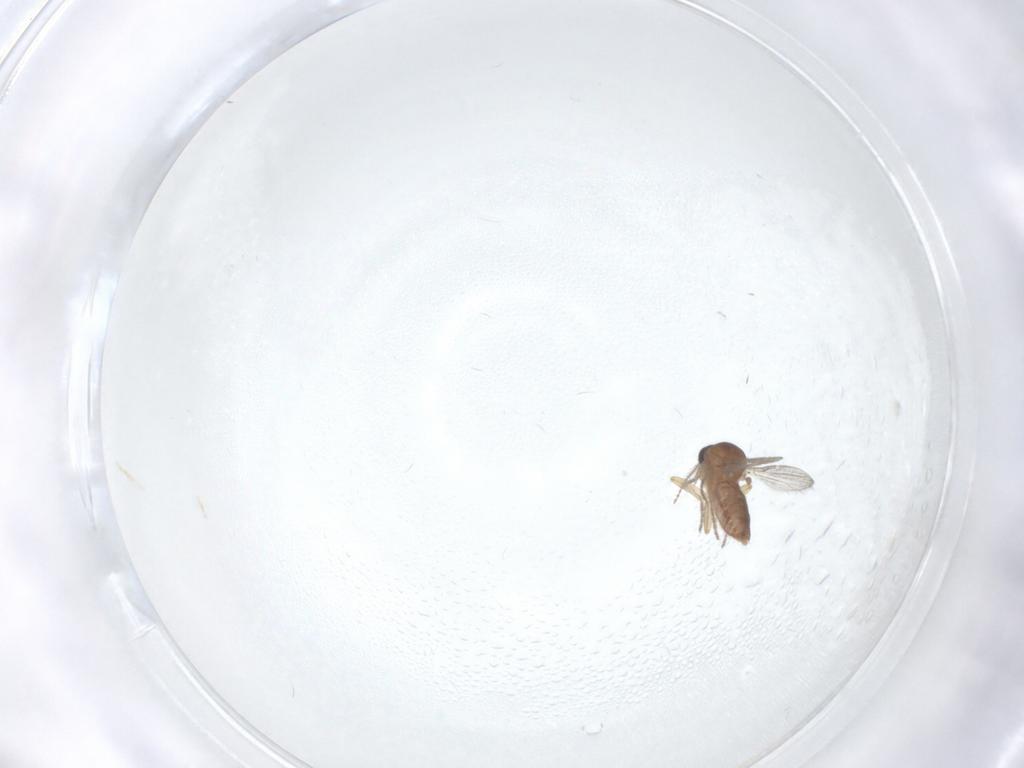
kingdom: Animalia
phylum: Arthropoda
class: Insecta
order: Diptera
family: Ceratopogonidae
